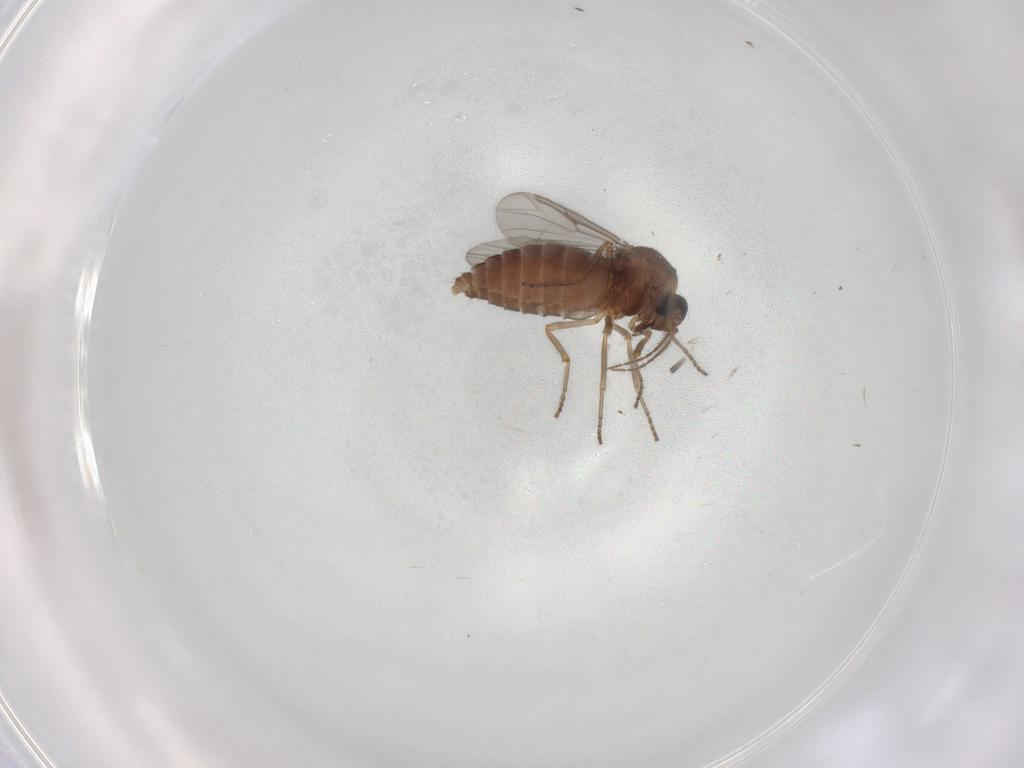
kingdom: Animalia
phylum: Arthropoda
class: Insecta
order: Diptera
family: Ceratopogonidae
